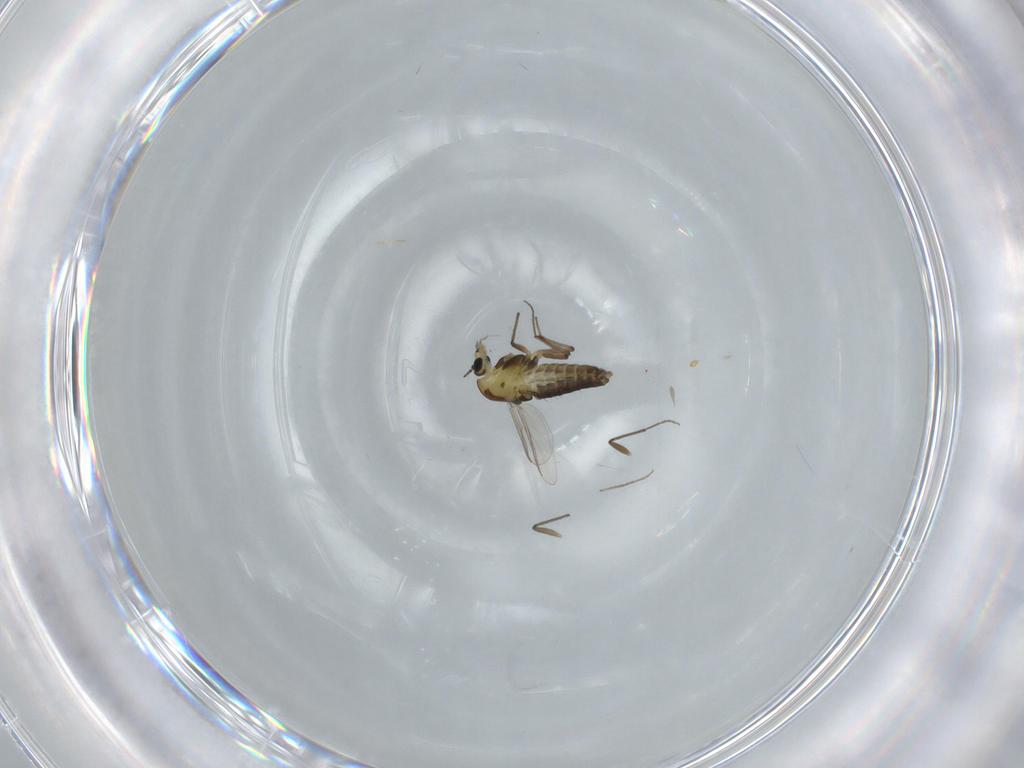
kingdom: Animalia
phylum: Arthropoda
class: Insecta
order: Diptera
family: Chironomidae
